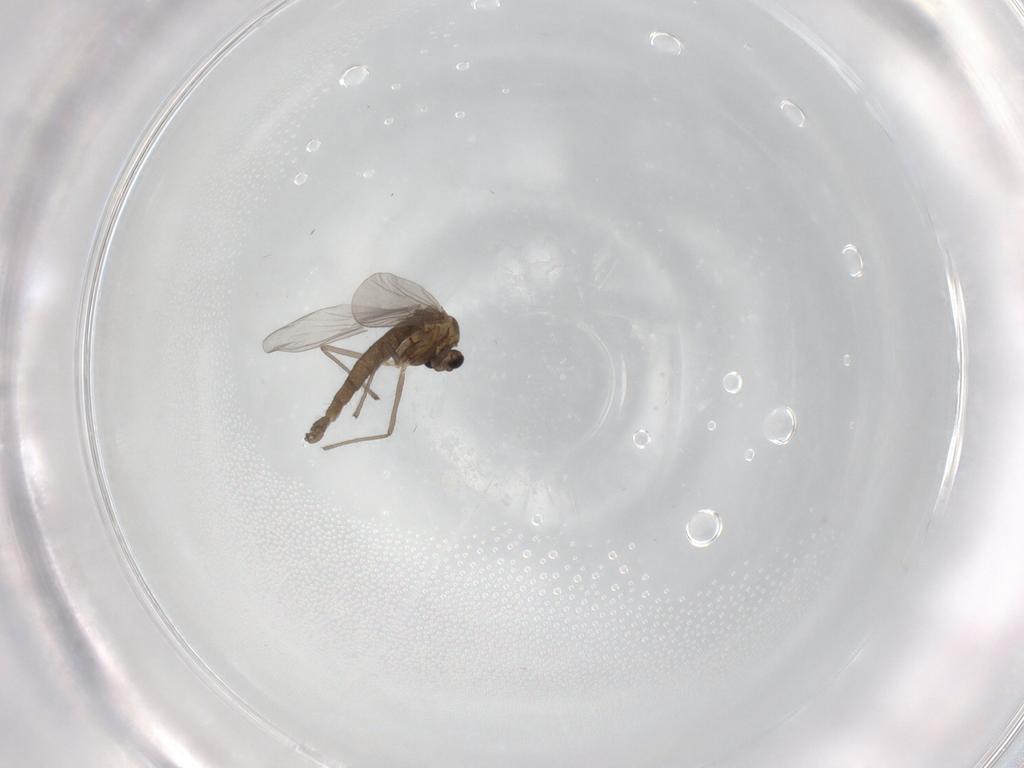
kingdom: Animalia
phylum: Arthropoda
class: Insecta
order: Diptera
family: Chironomidae
